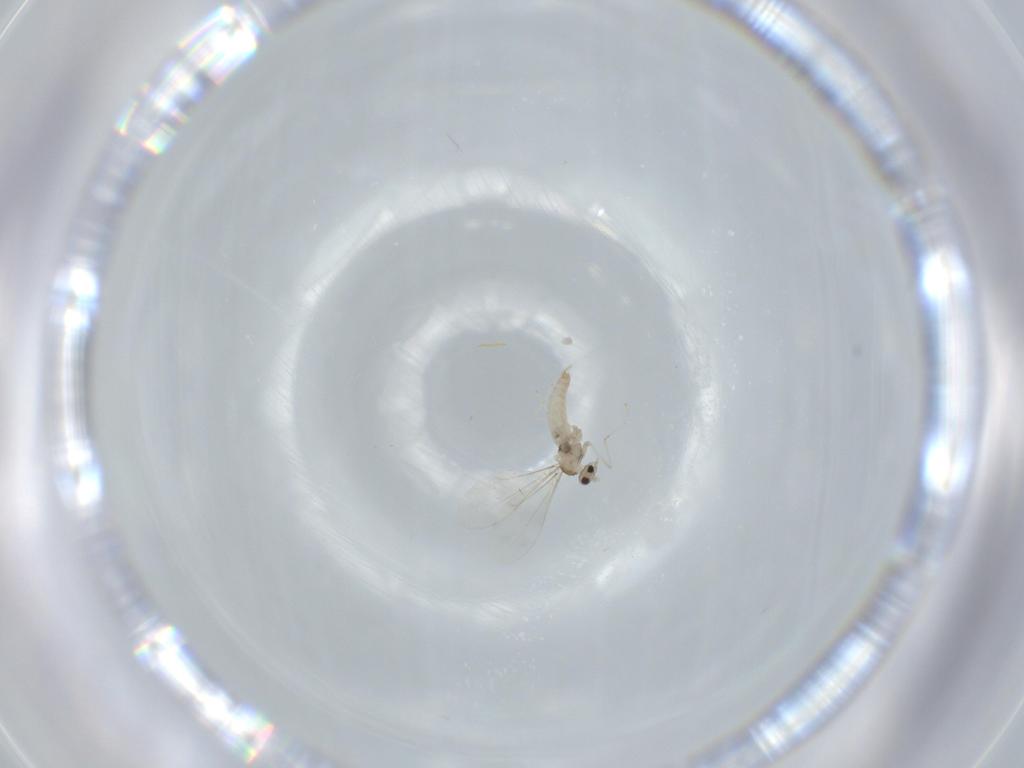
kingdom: Animalia
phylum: Arthropoda
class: Insecta
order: Diptera
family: Cecidomyiidae
